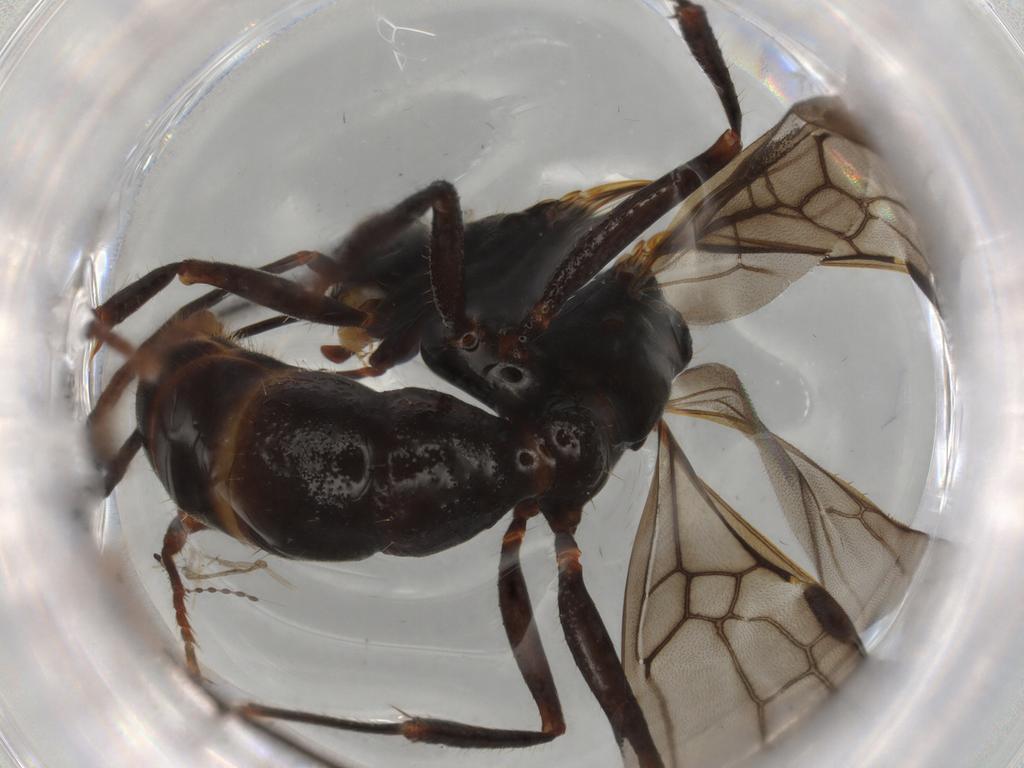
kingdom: Animalia
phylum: Arthropoda
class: Insecta
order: Hymenoptera
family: Formicidae
